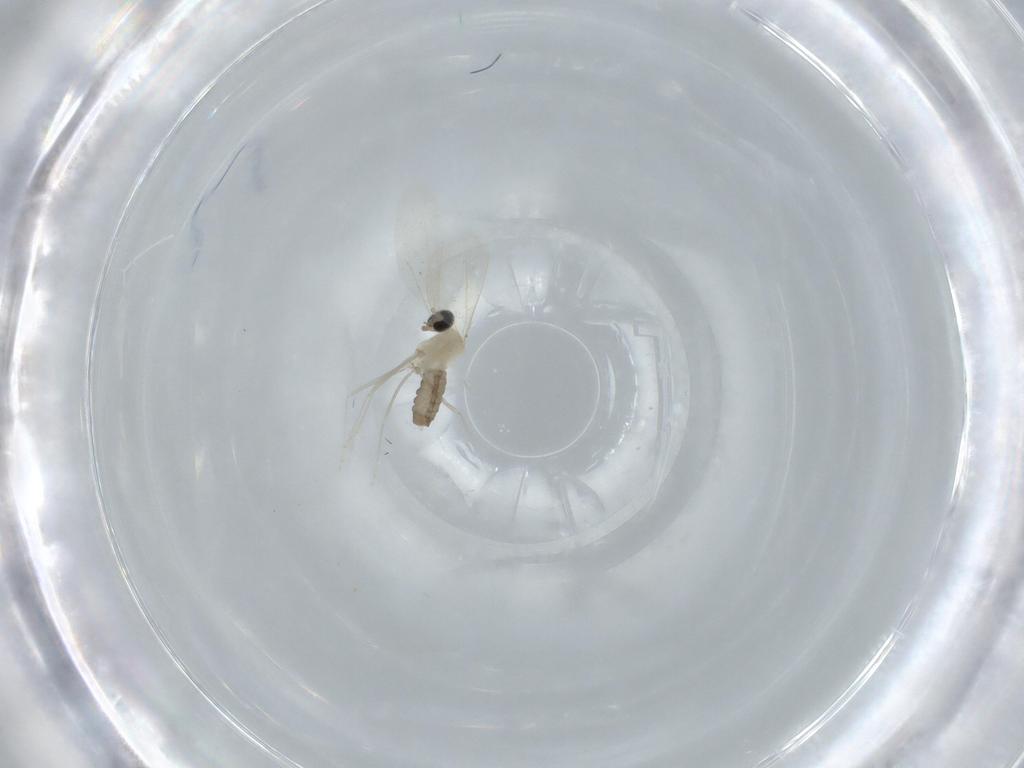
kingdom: Animalia
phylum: Arthropoda
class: Insecta
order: Diptera
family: Cecidomyiidae
